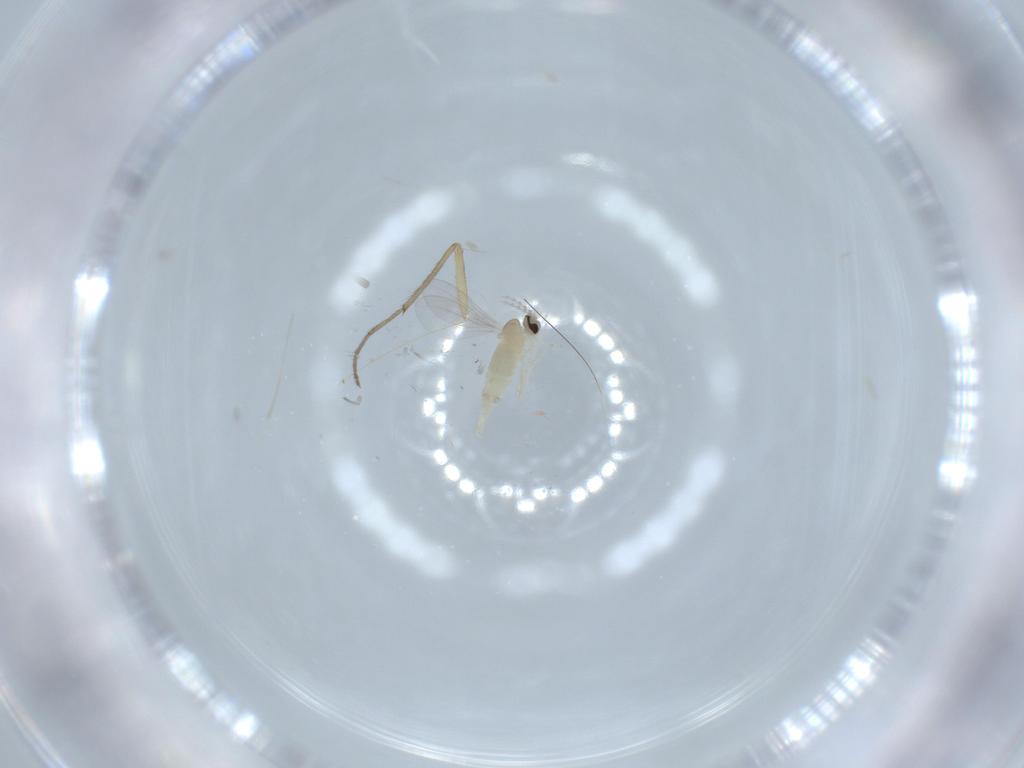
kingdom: Animalia
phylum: Arthropoda
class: Insecta
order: Diptera
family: Cecidomyiidae
